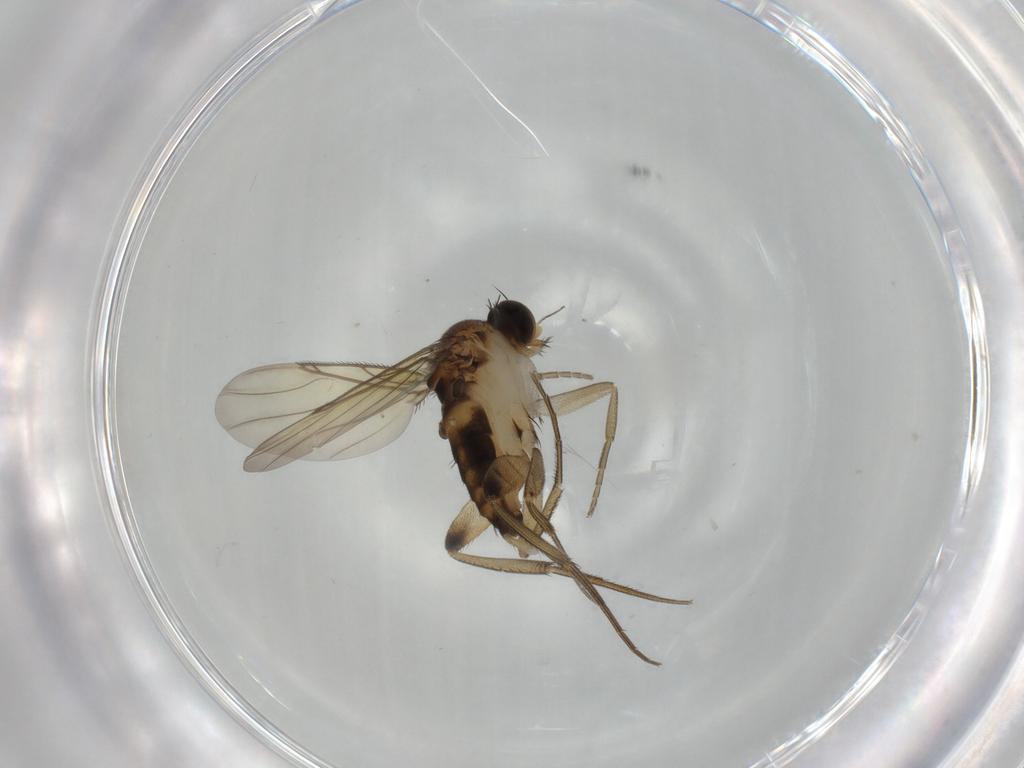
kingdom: Animalia
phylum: Arthropoda
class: Insecta
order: Diptera
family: Phoridae
